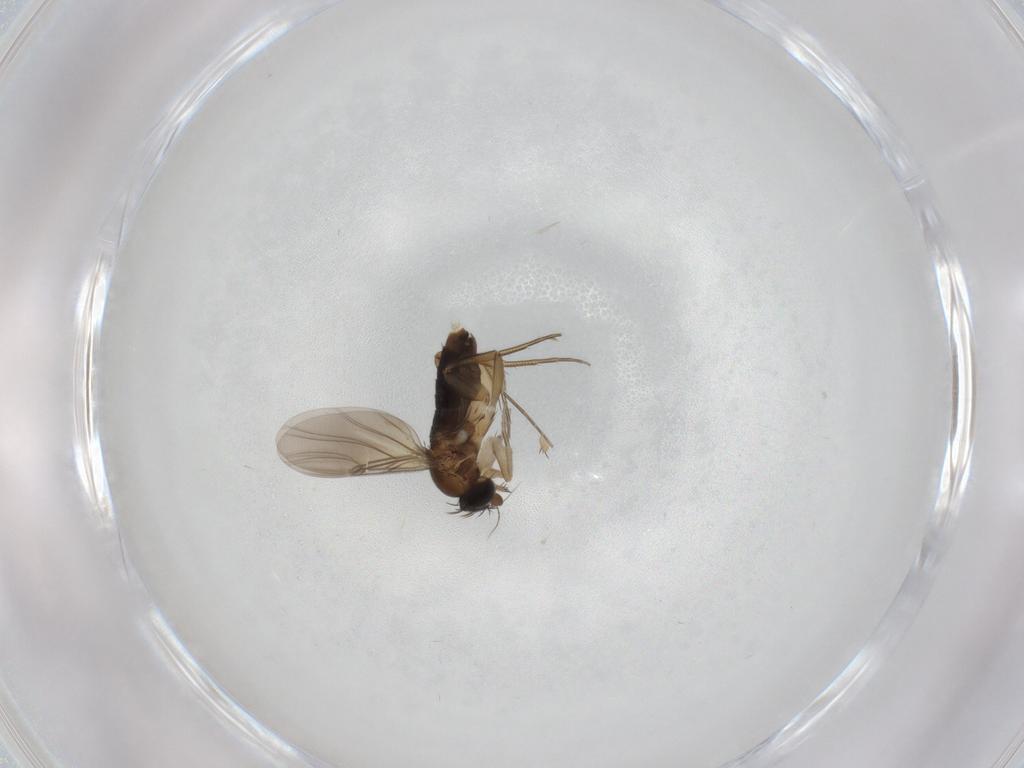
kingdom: Animalia
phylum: Arthropoda
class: Insecta
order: Diptera
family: Phoridae
